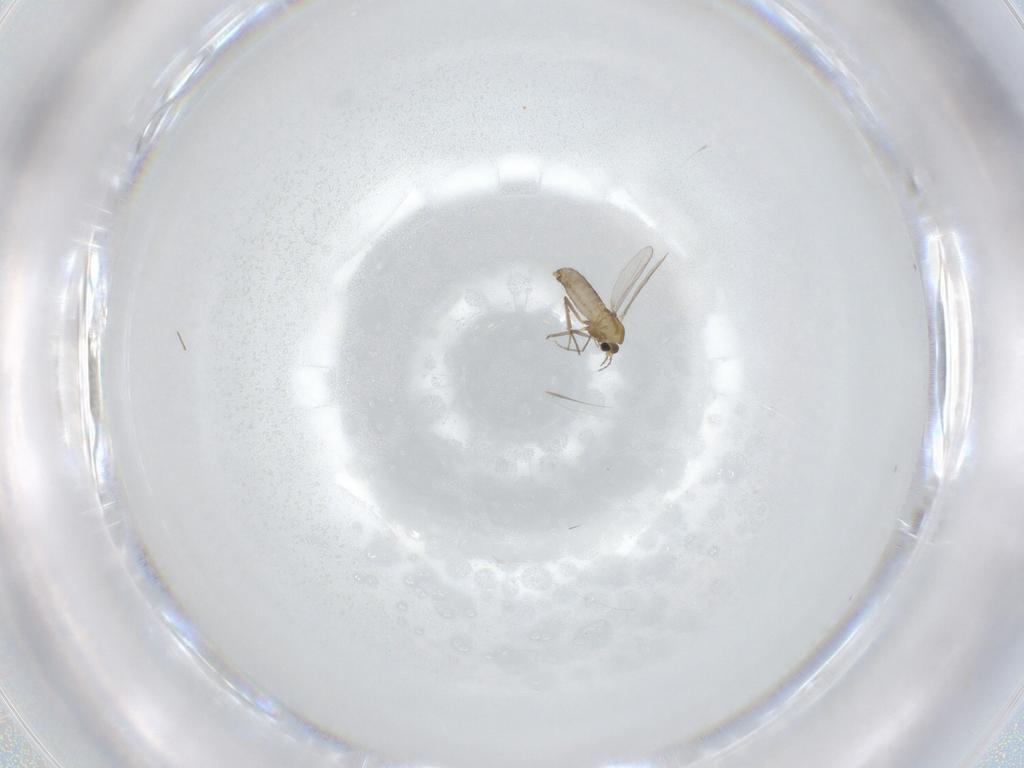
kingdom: Animalia
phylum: Arthropoda
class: Insecta
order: Diptera
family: Chironomidae
